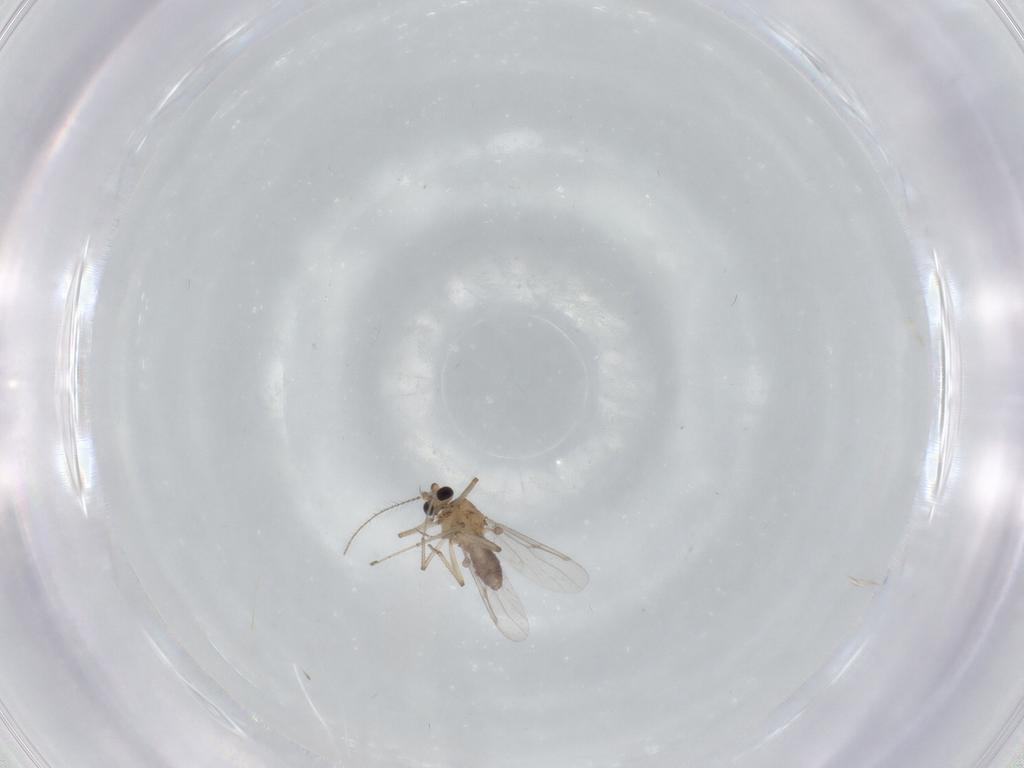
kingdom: Animalia
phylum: Arthropoda
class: Insecta
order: Diptera
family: Ceratopogonidae
